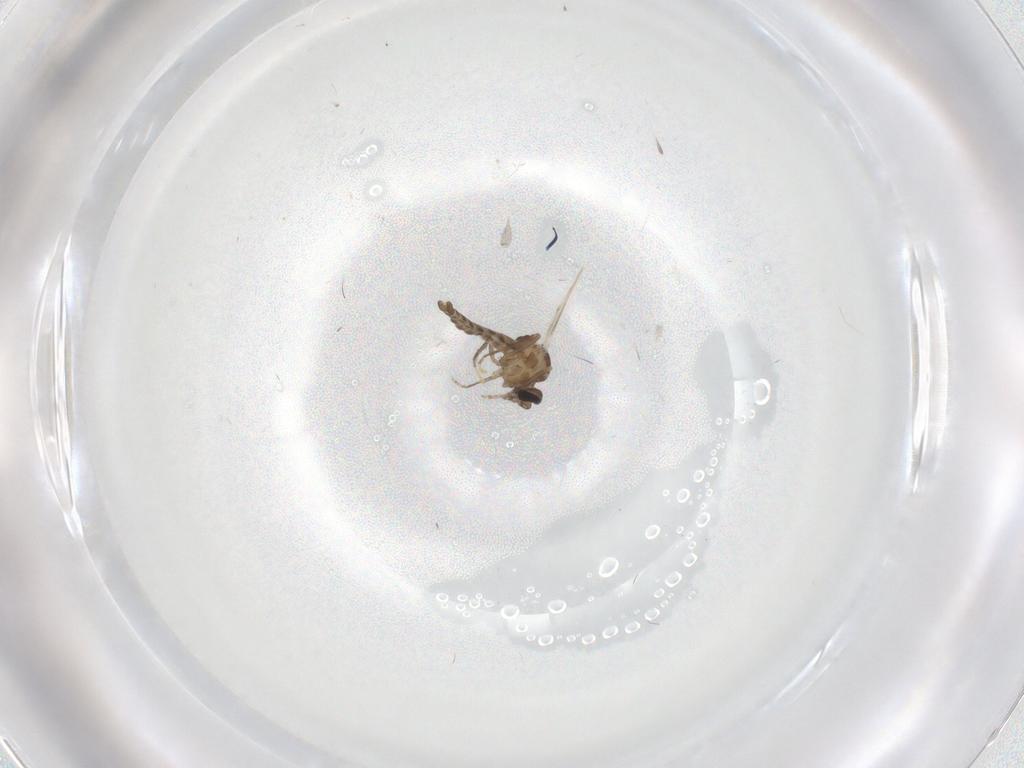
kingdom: Animalia
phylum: Arthropoda
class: Insecta
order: Diptera
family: Ceratopogonidae
